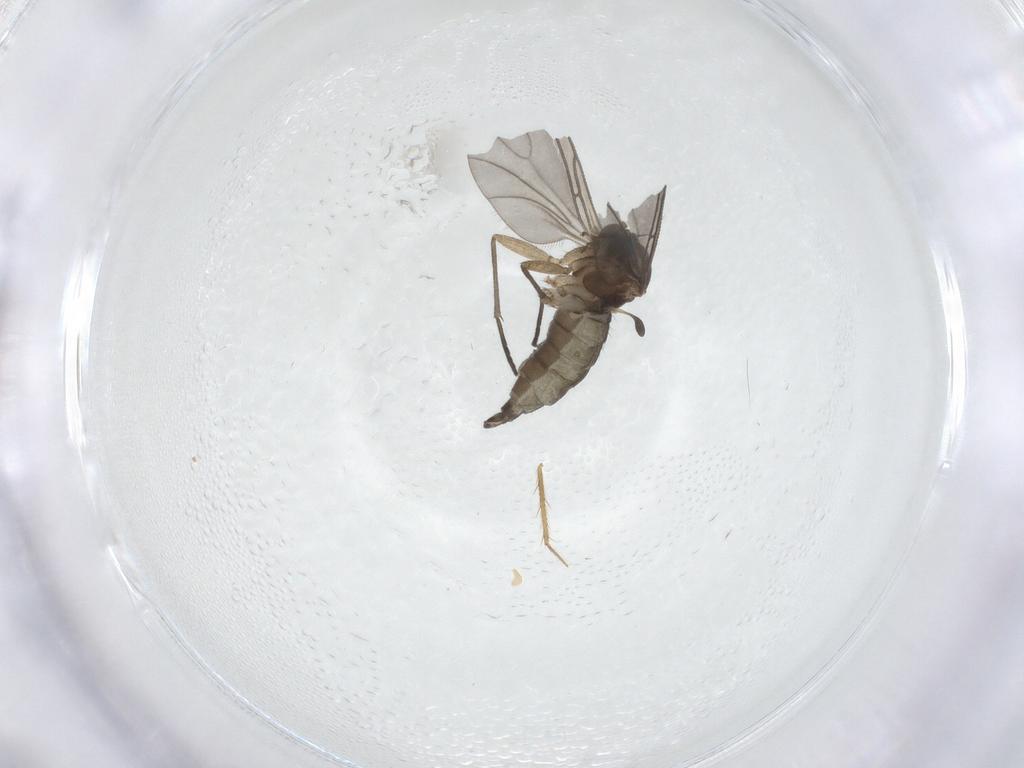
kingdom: Animalia
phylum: Arthropoda
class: Insecta
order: Diptera
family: Sciaridae
